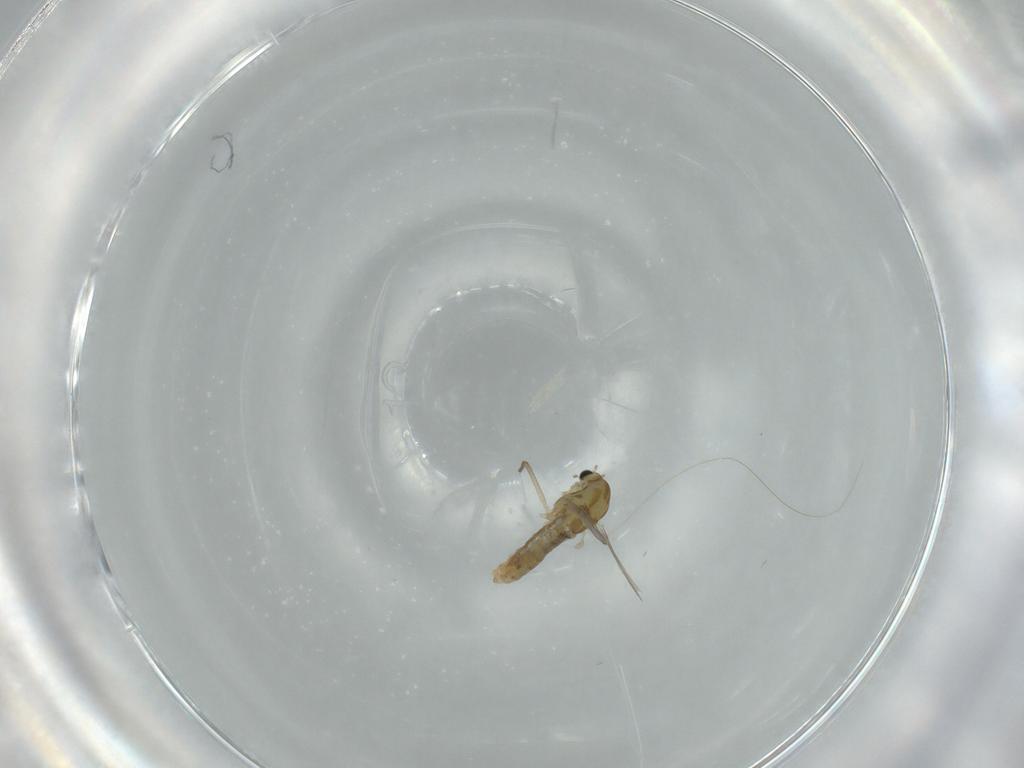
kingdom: Animalia
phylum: Arthropoda
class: Insecta
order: Diptera
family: Chironomidae
